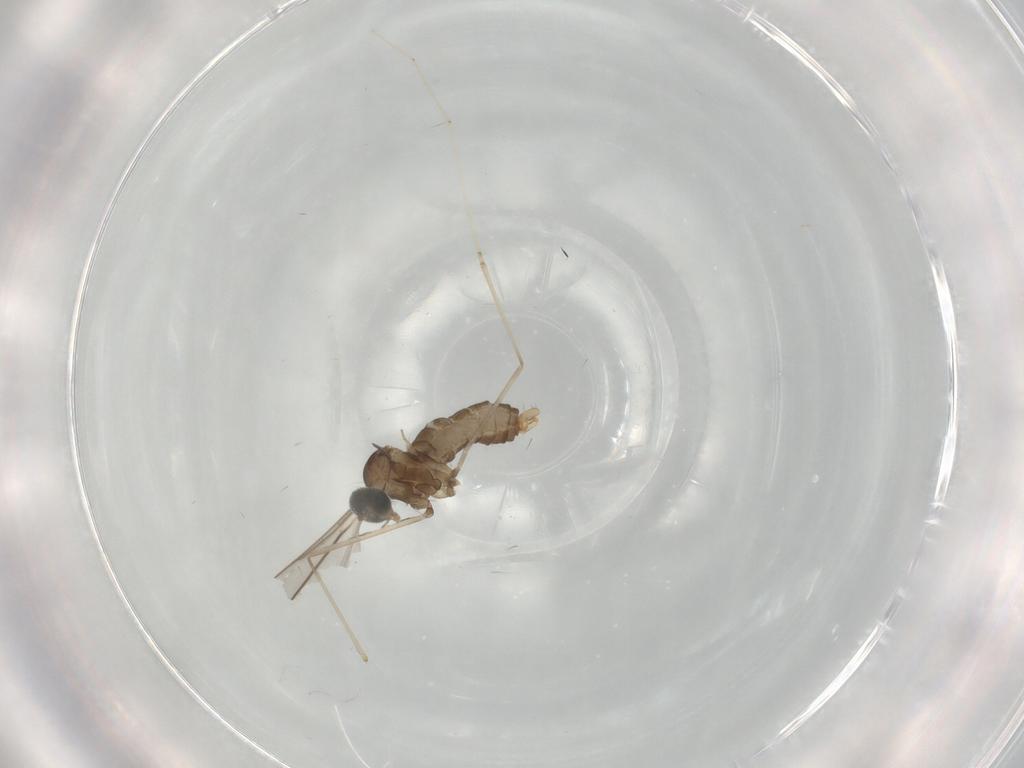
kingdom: Animalia
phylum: Arthropoda
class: Insecta
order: Diptera
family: Cecidomyiidae
